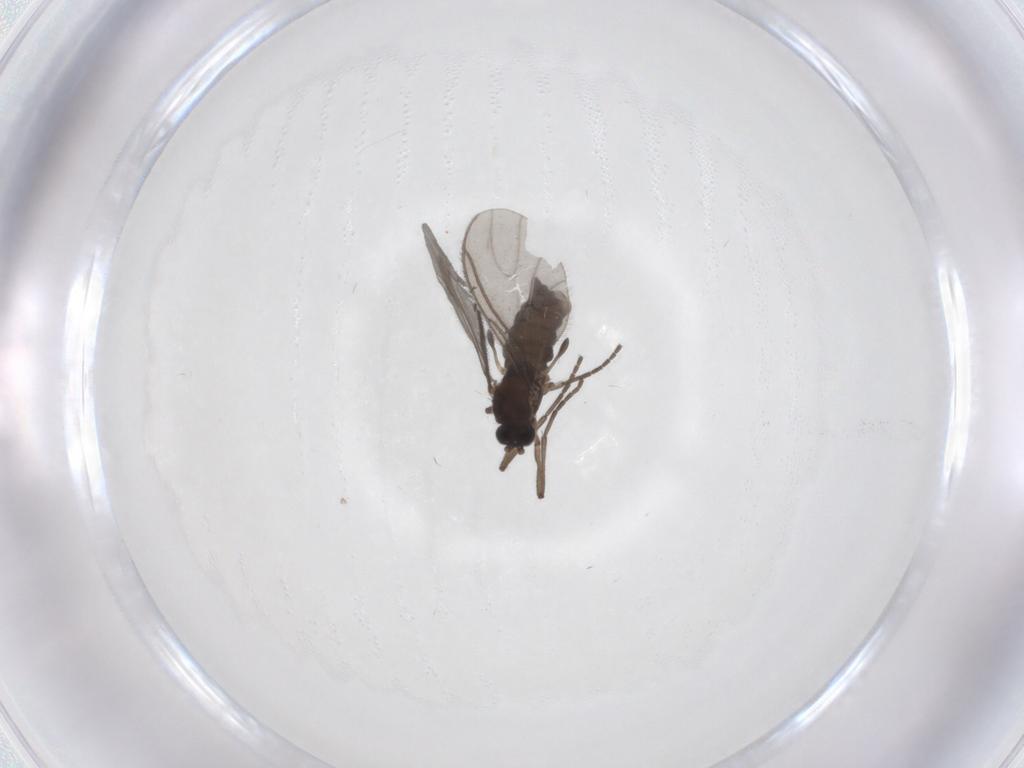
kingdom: Animalia
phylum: Arthropoda
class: Insecta
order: Diptera
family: Sciaridae
